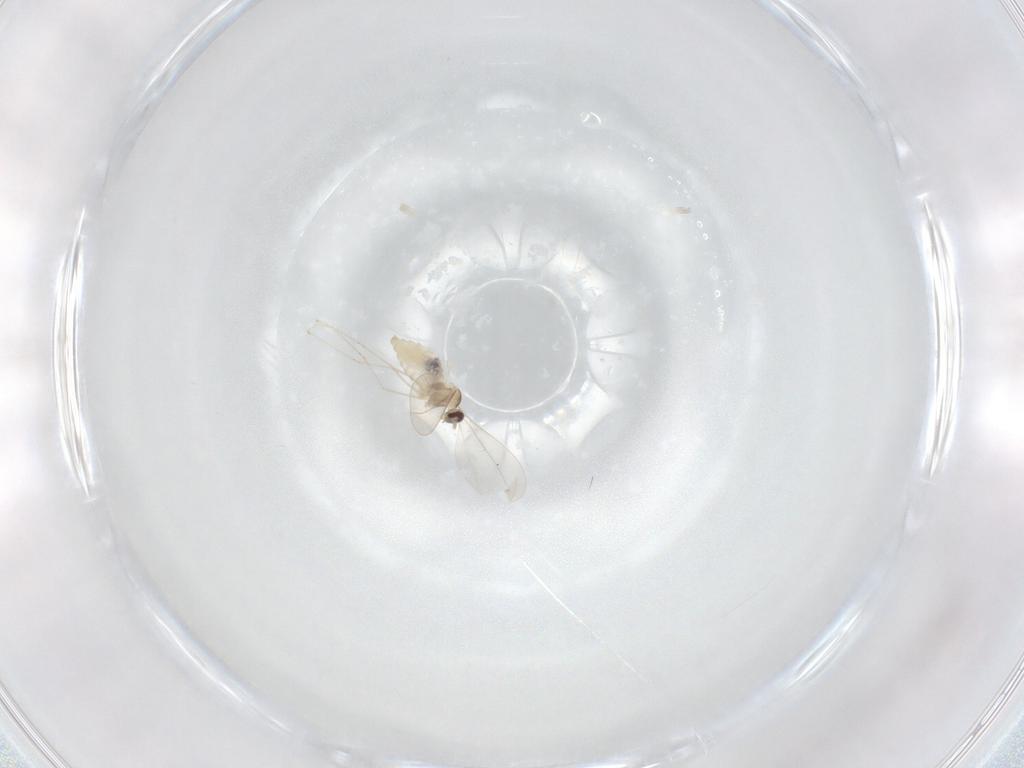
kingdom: Animalia
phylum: Arthropoda
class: Insecta
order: Diptera
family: Cecidomyiidae
